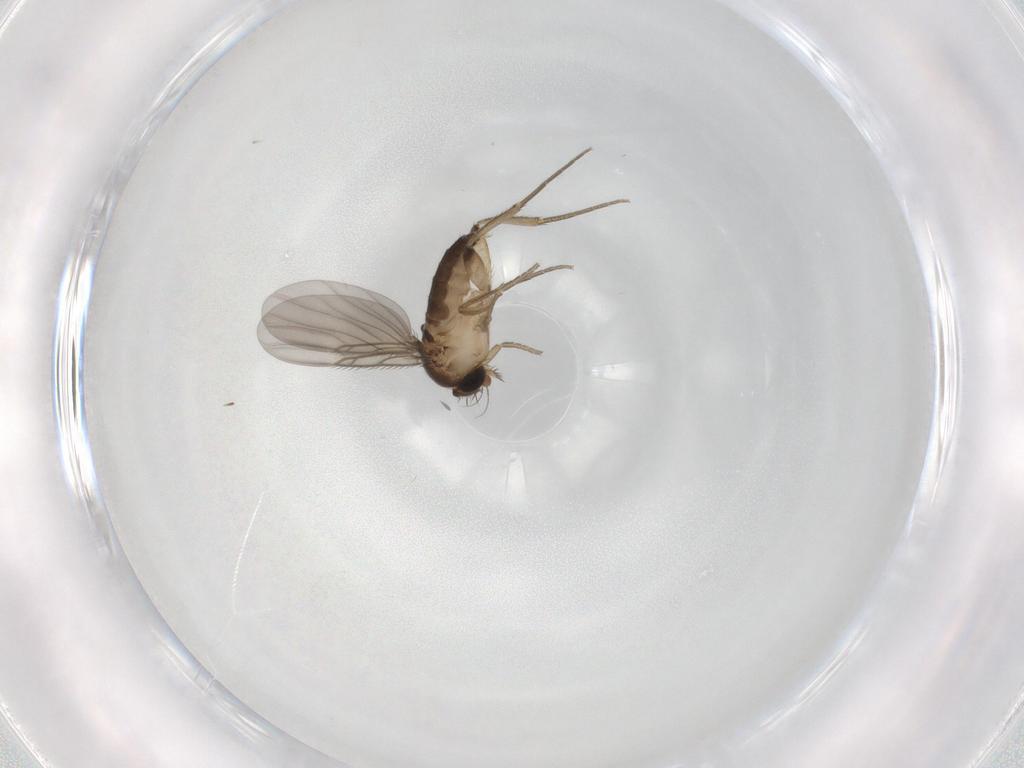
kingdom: Animalia
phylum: Arthropoda
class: Insecta
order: Diptera
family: Phoridae
